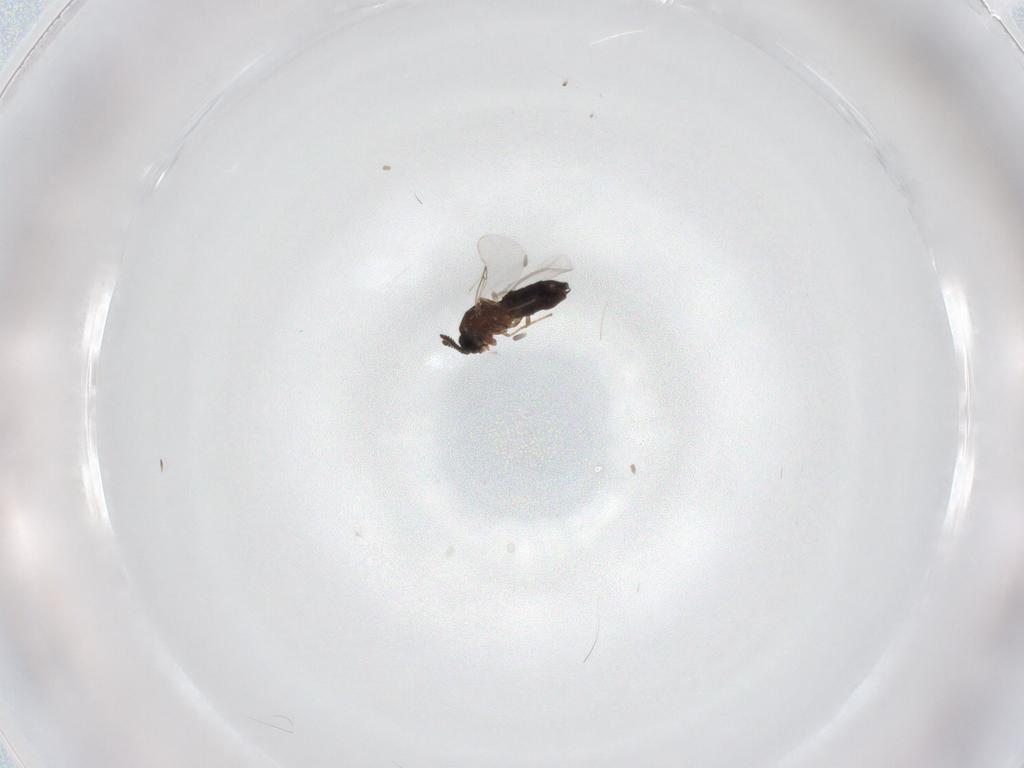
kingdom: Animalia
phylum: Arthropoda
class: Insecta
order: Diptera
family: Scatopsidae
